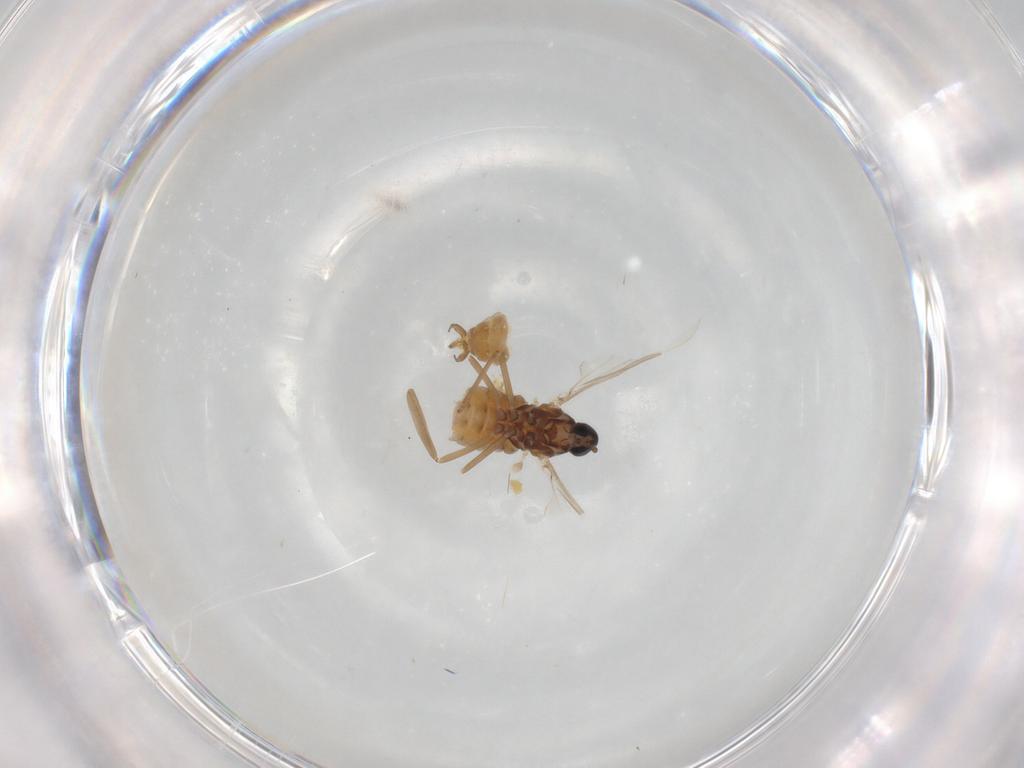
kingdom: Animalia
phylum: Arthropoda
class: Insecta
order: Diptera
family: Cecidomyiidae
